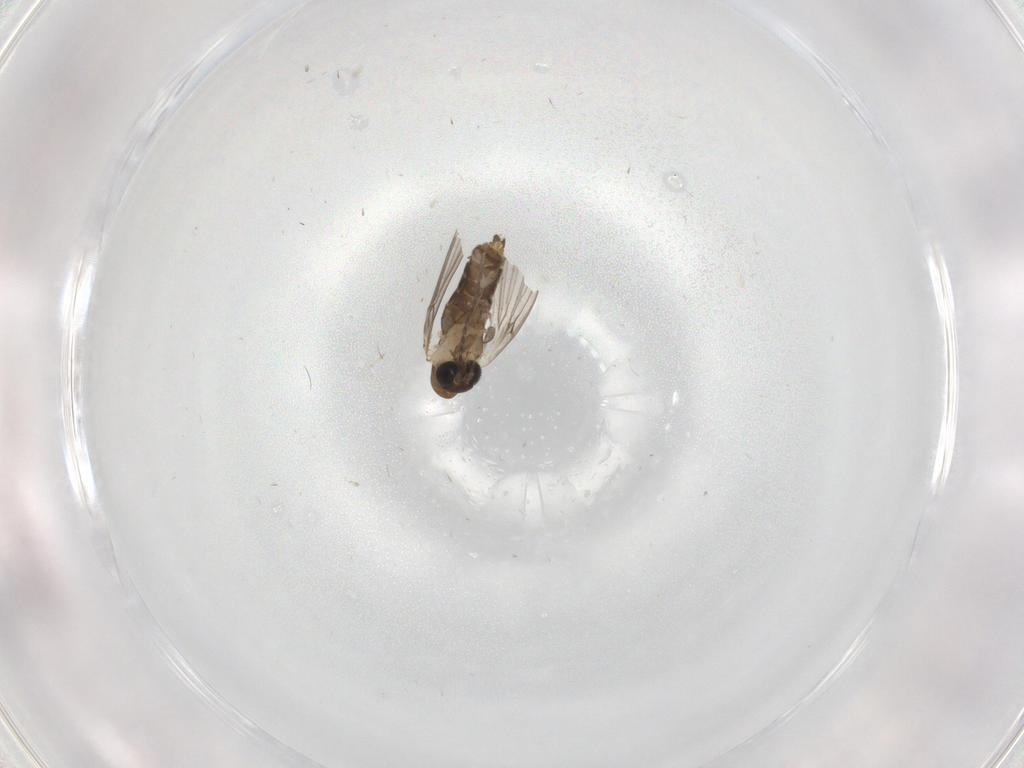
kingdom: Animalia
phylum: Arthropoda
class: Insecta
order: Diptera
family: Psychodidae
